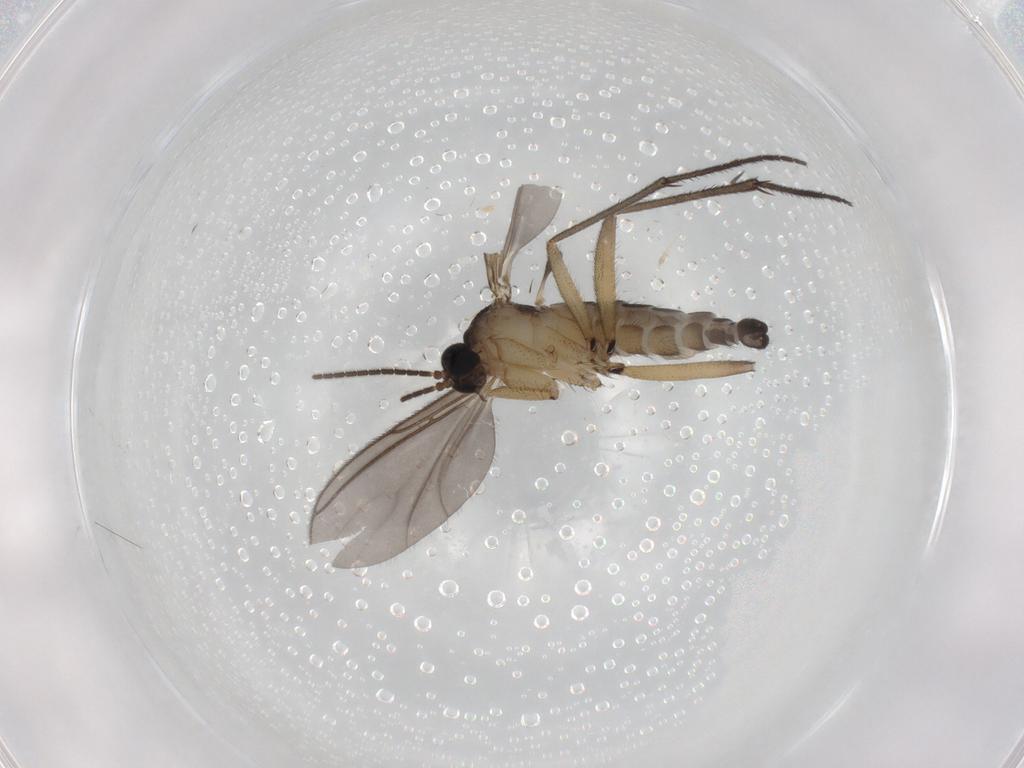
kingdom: Animalia
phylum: Arthropoda
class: Insecta
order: Diptera
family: Sciaridae
